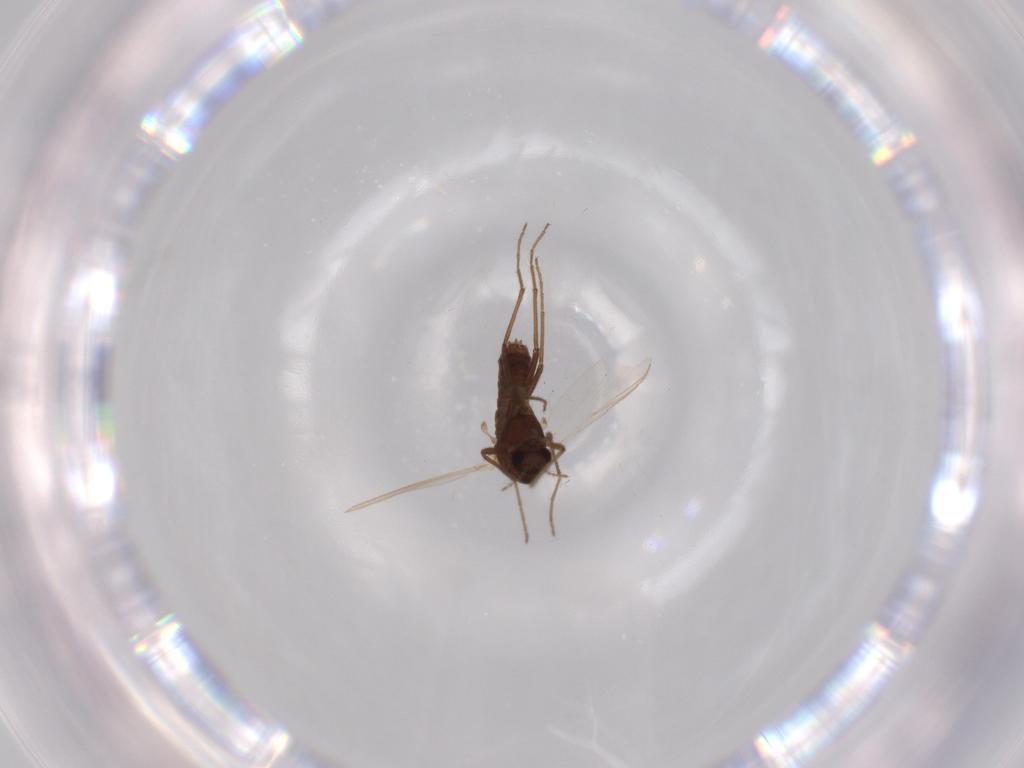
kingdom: Animalia
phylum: Arthropoda
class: Insecta
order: Diptera
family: Chironomidae
